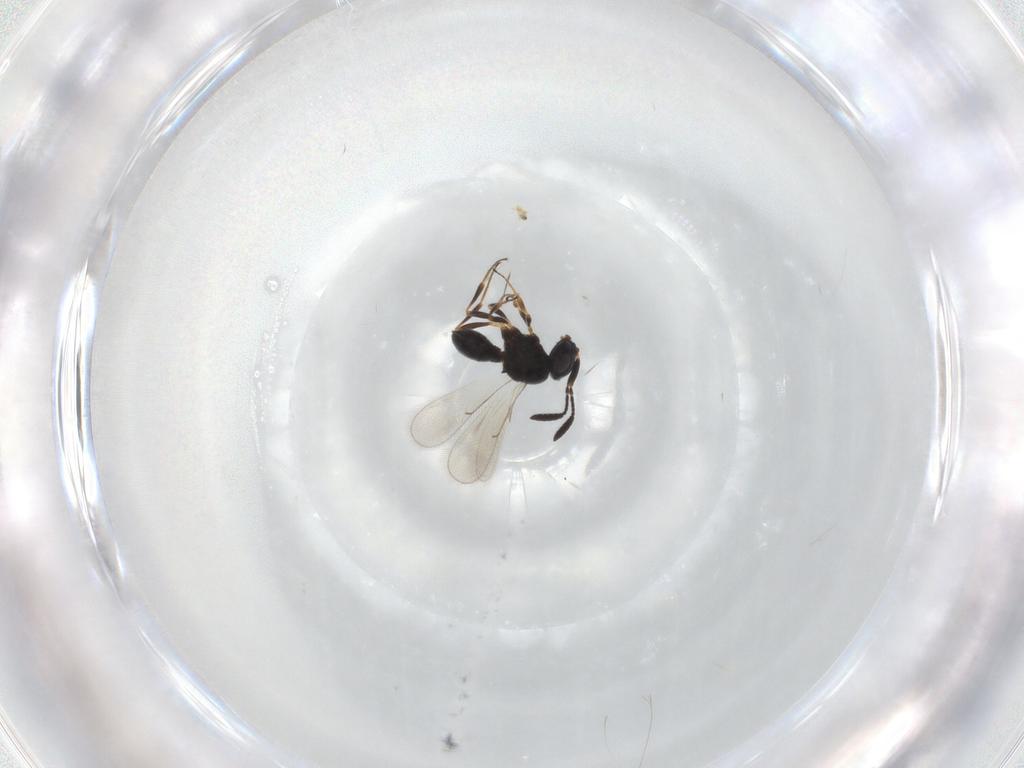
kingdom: Animalia
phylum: Arthropoda
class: Insecta
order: Hymenoptera
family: Scelionidae
